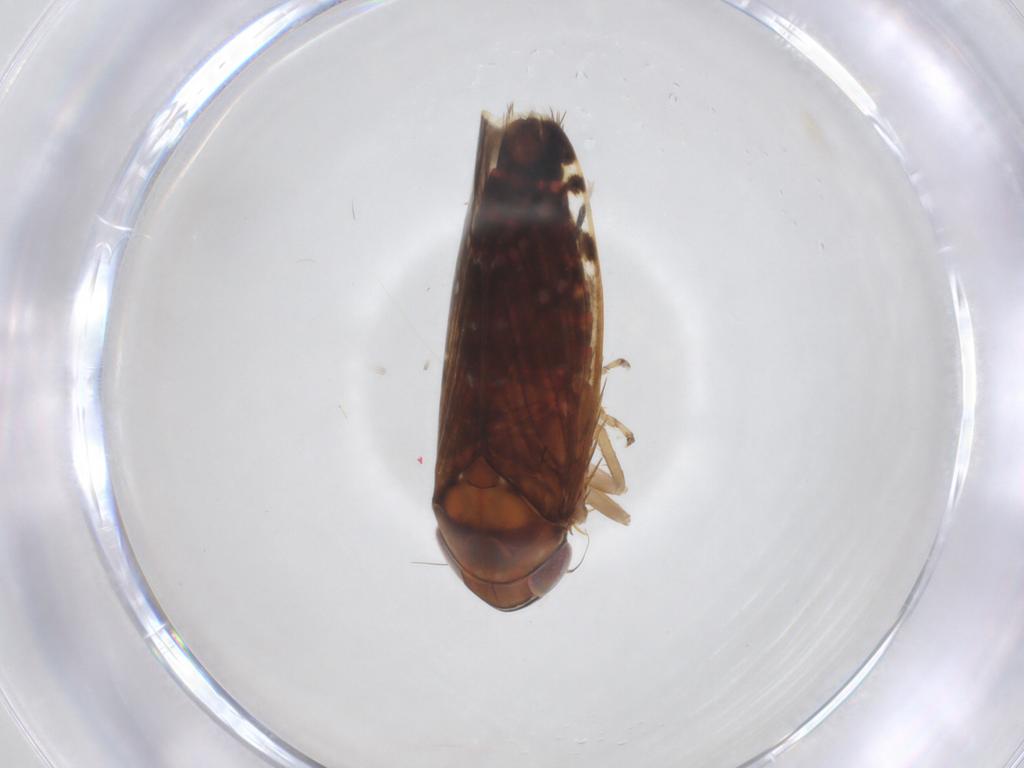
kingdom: Animalia
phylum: Arthropoda
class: Insecta
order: Hemiptera
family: Cicadellidae
